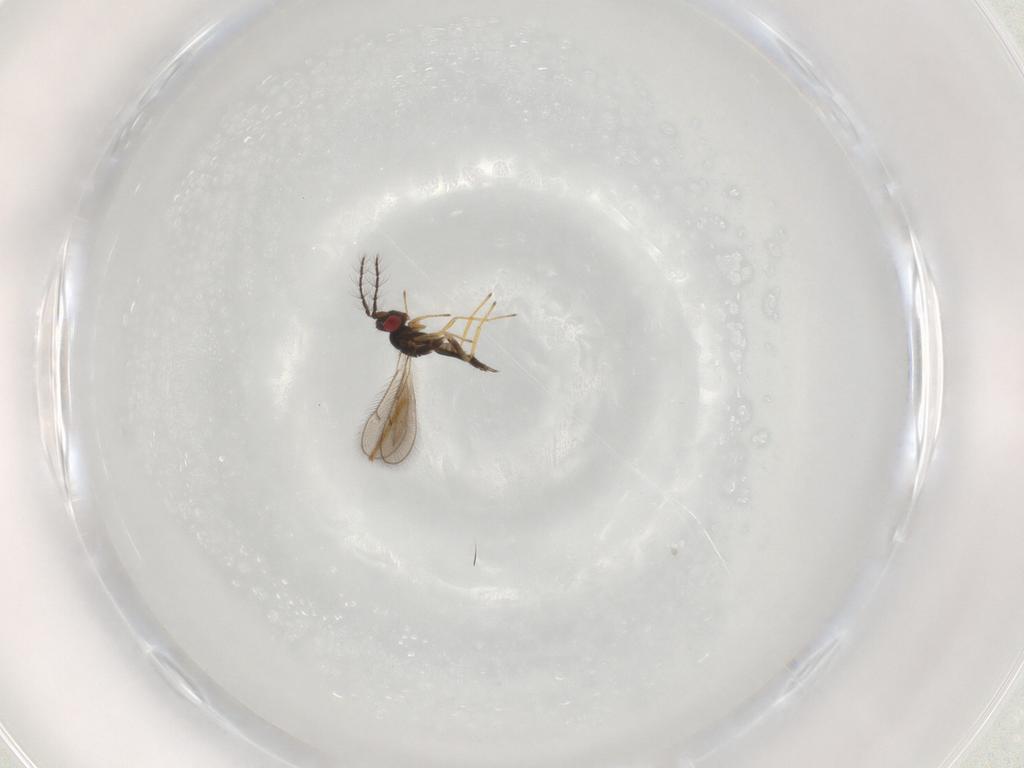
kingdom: Animalia
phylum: Arthropoda
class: Insecta
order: Hymenoptera
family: Eulophidae
